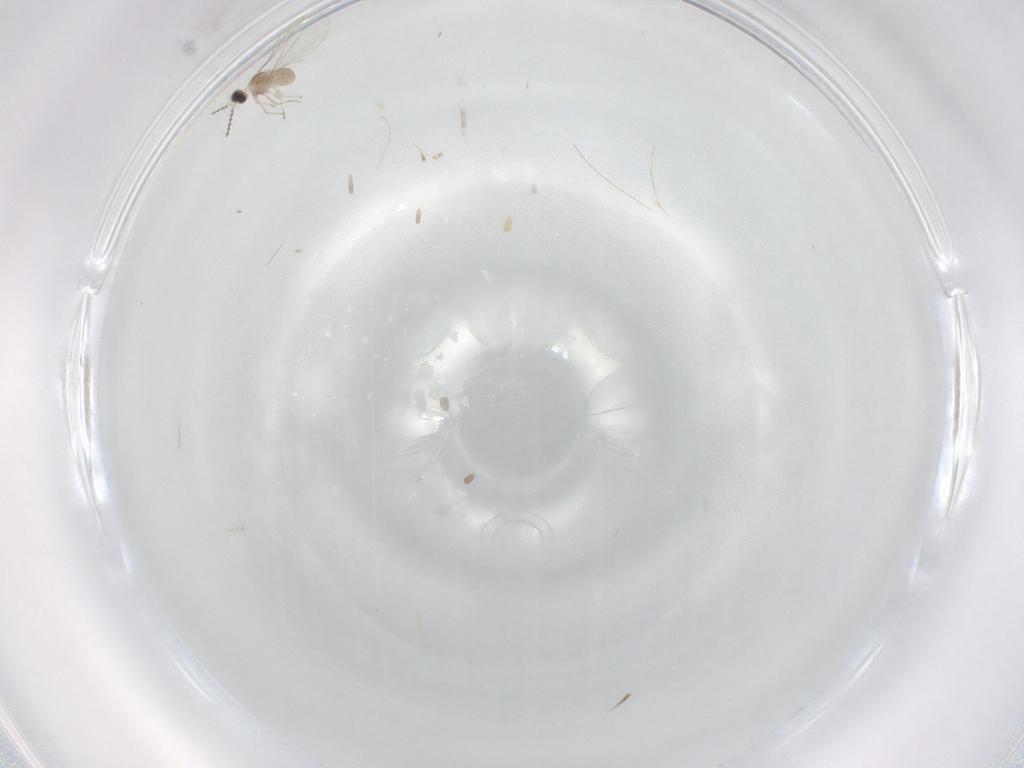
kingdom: Animalia
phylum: Arthropoda
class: Insecta
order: Diptera
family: Cecidomyiidae
